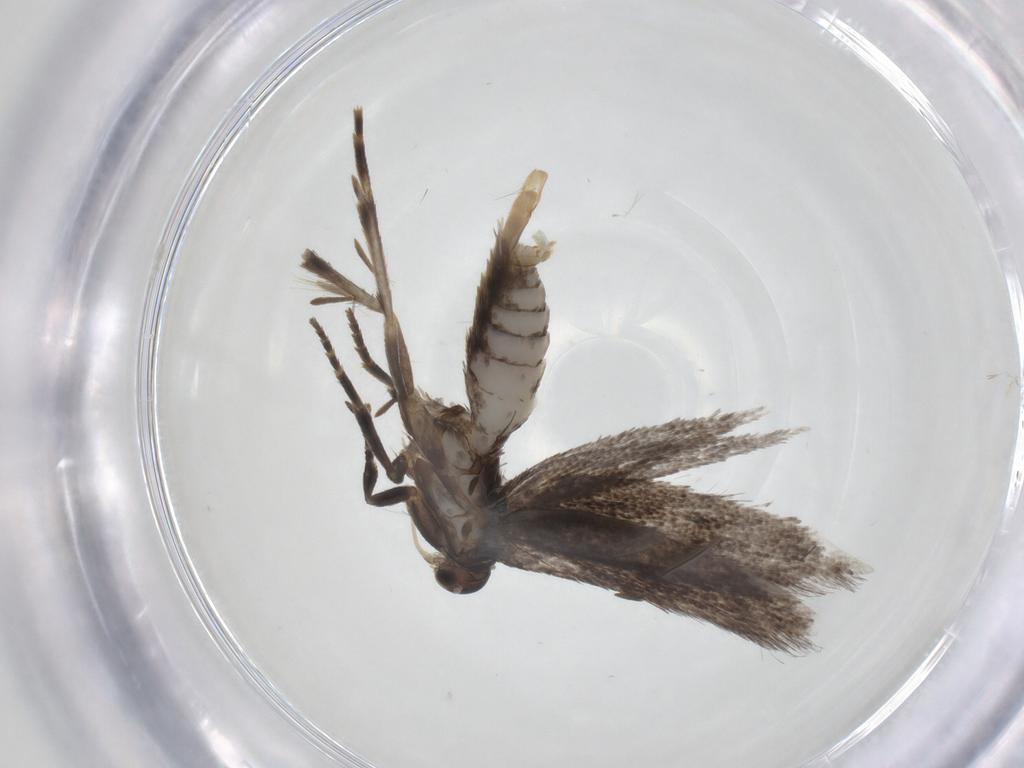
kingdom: Animalia
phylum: Arthropoda
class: Insecta
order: Lepidoptera
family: Elachistidae
